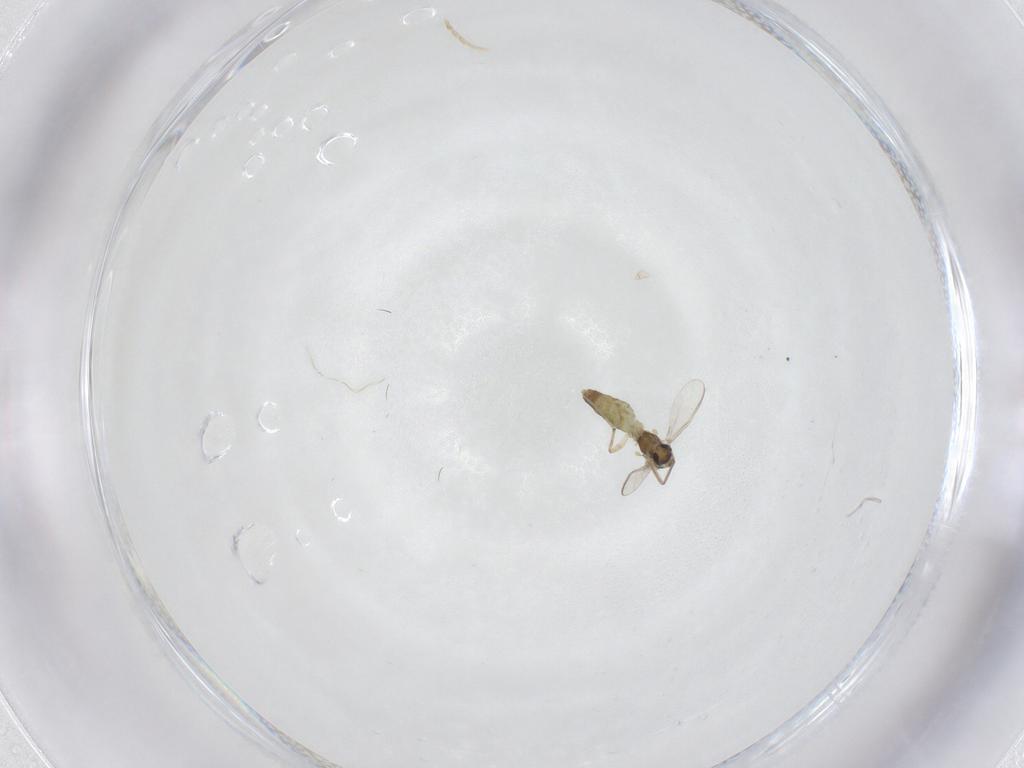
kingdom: Animalia
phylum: Arthropoda
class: Insecta
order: Diptera
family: Chironomidae
